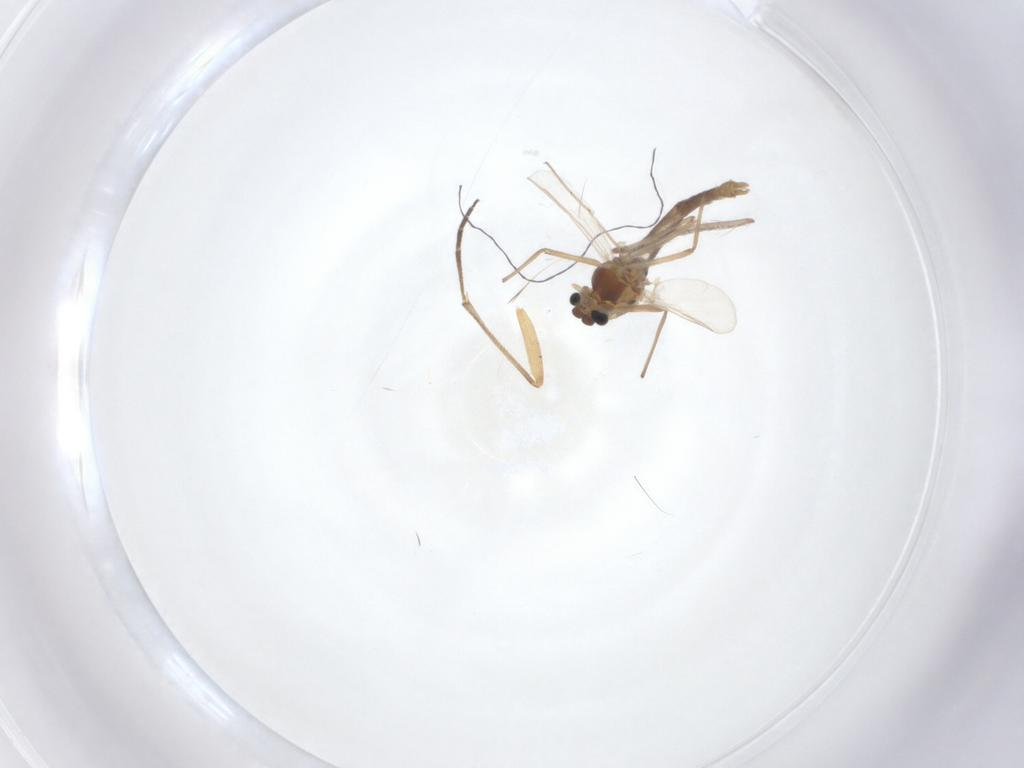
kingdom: Animalia
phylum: Arthropoda
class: Insecta
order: Diptera
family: Chironomidae
